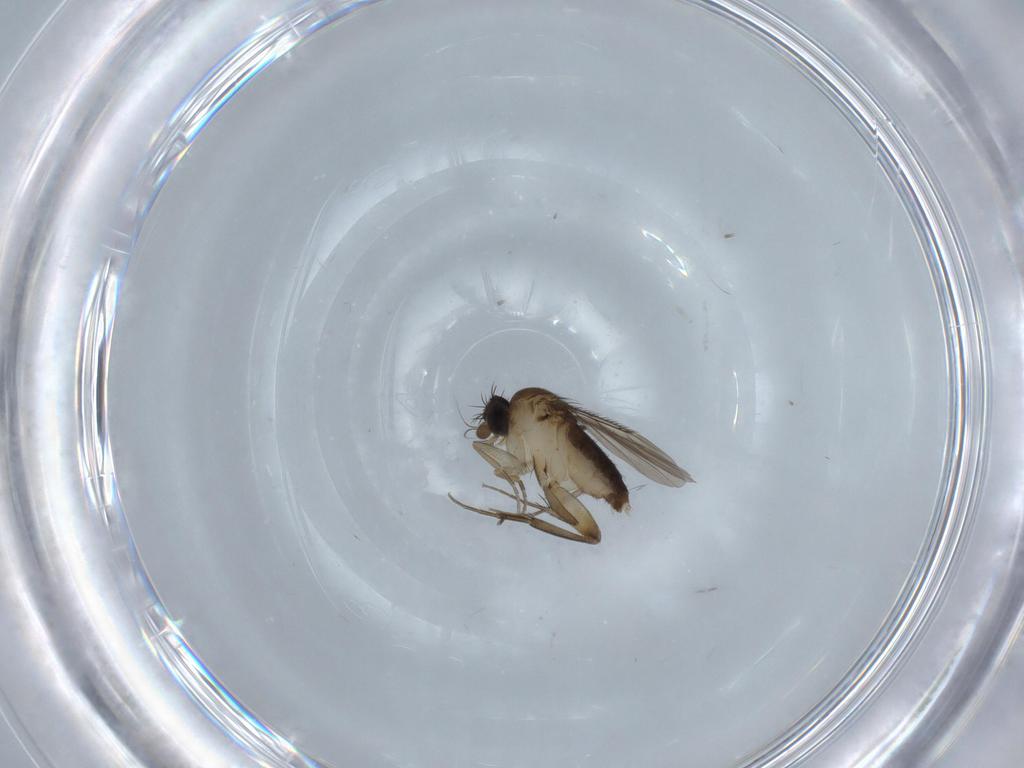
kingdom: Animalia
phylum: Arthropoda
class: Insecta
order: Diptera
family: Phoridae
